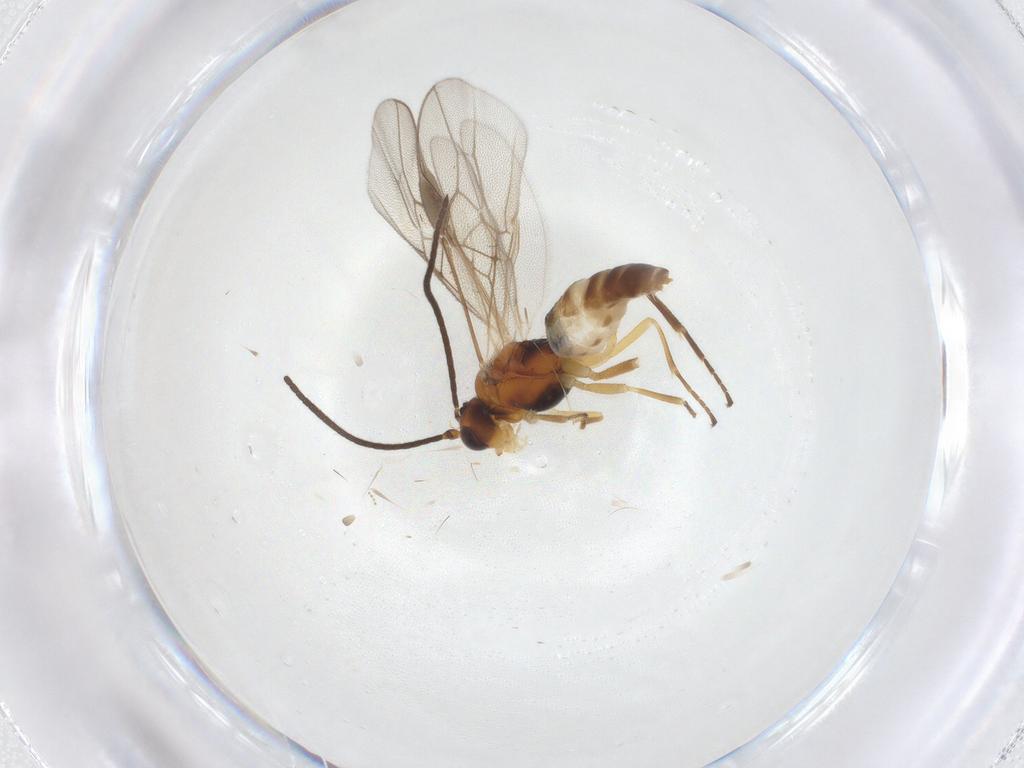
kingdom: Animalia
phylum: Arthropoda
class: Insecta
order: Hymenoptera
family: Braconidae
